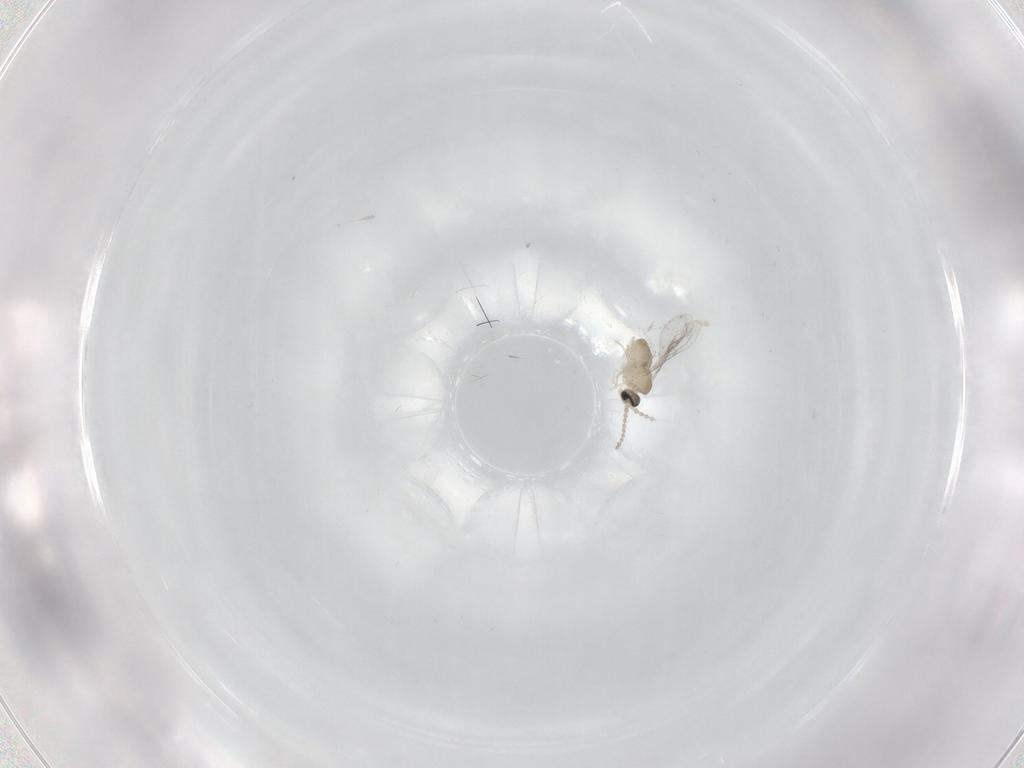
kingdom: Animalia
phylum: Arthropoda
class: Insecta
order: Diptera
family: Cecidomyiidae
